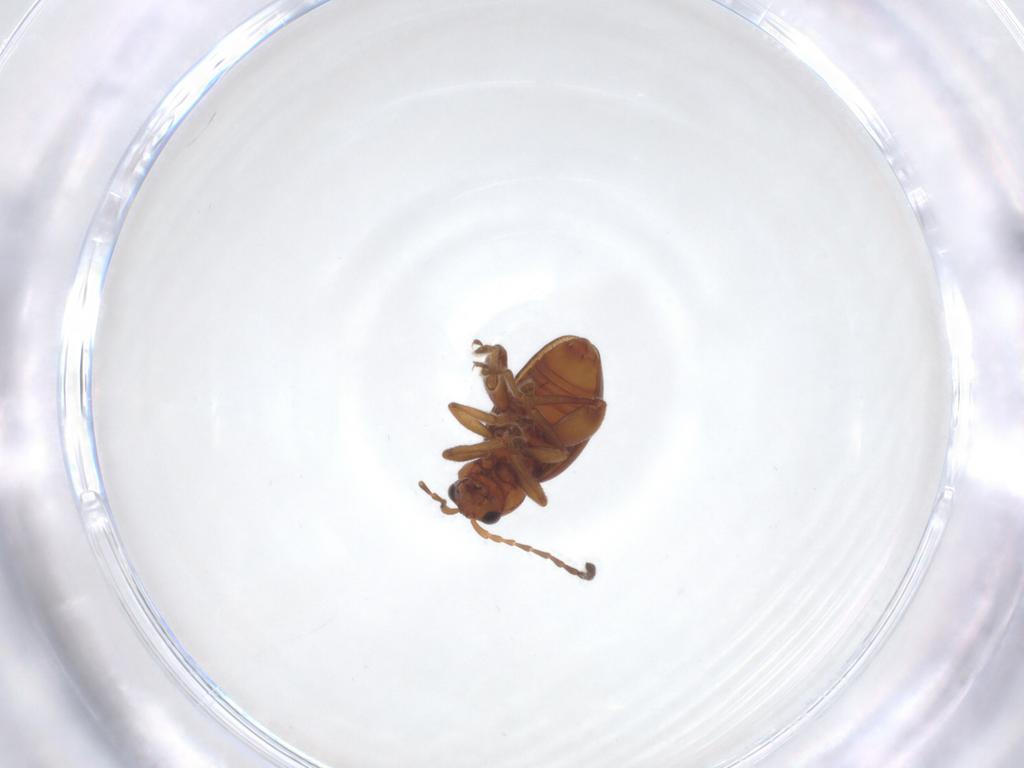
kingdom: Animalia
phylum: Arthropoda
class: Insecta
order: Coleoptera
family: Chrysomelidae
